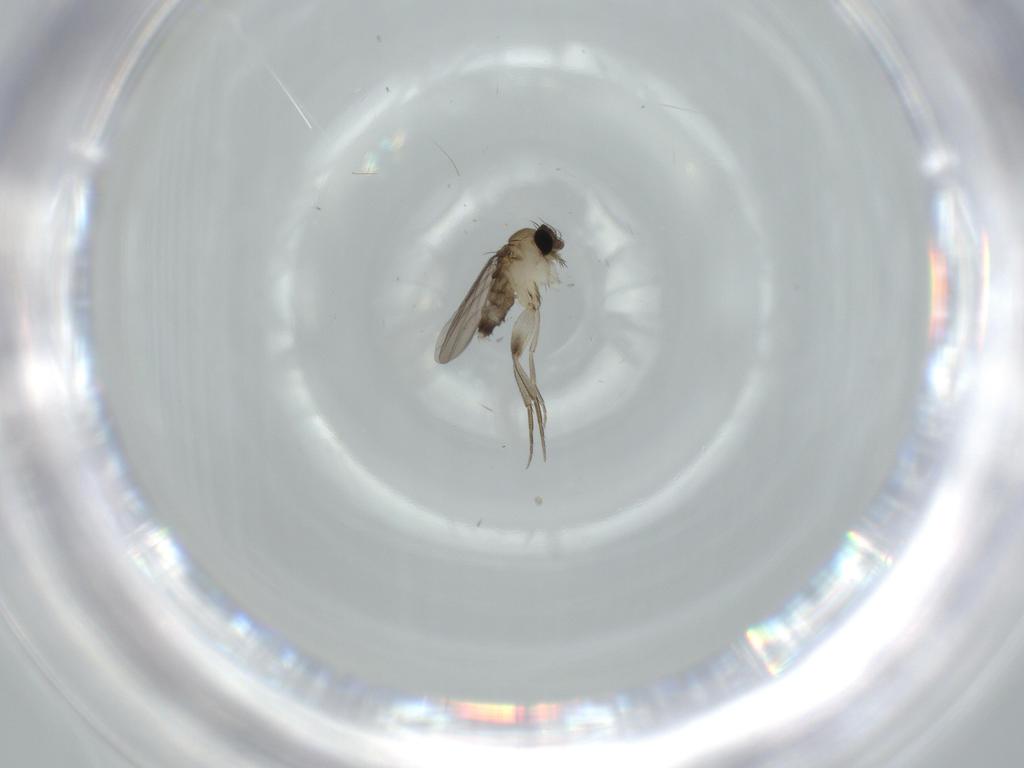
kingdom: Animalia
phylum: Arthropoda
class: Insecta
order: Diptera
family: Phoridae
